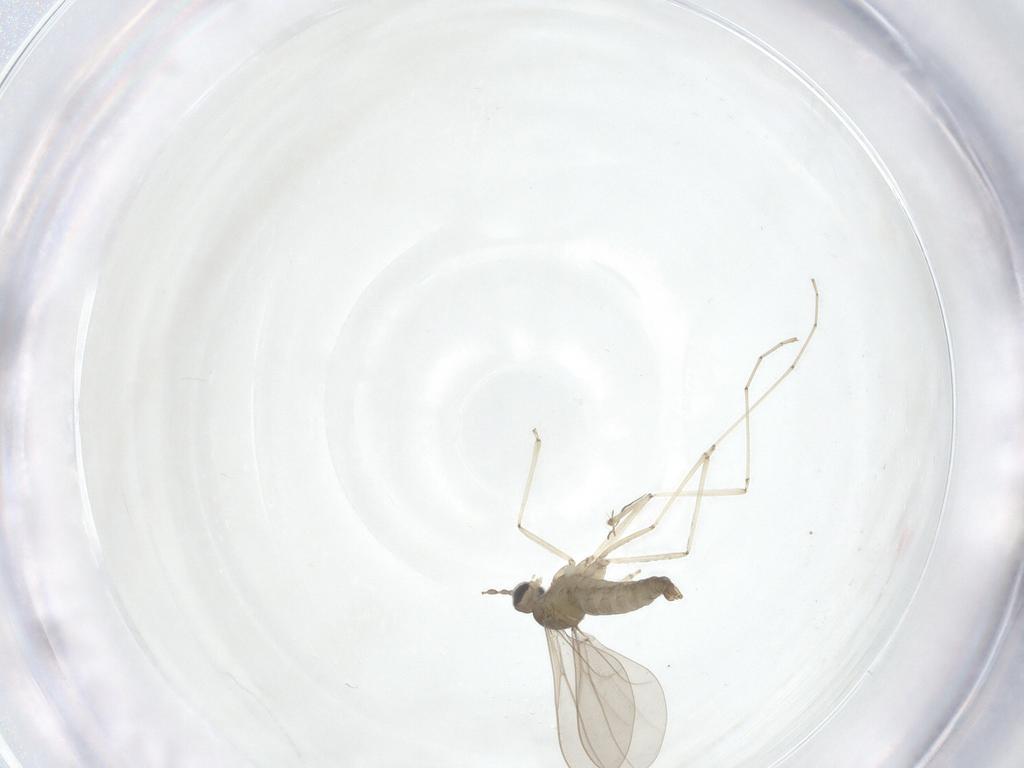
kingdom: Animalia
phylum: Arthropoda
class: Insecta
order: Diptera
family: Cecidomyiidae
